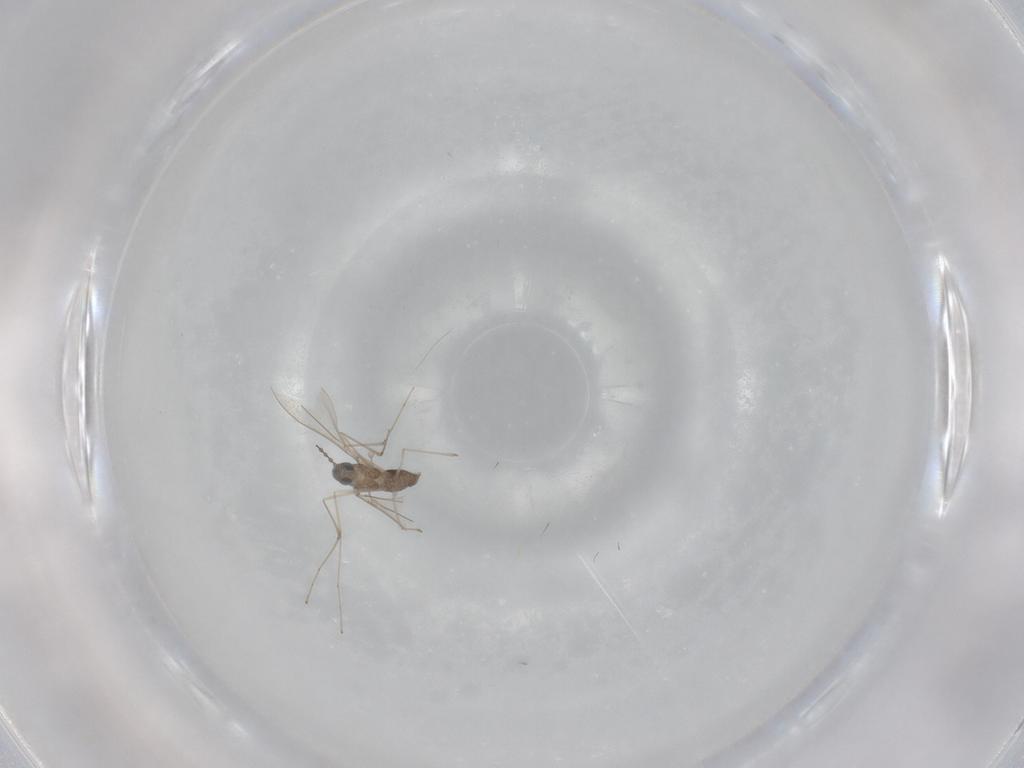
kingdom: Animalia
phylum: Arthropoda
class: Insecta
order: Diptera
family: Cecidomyiidae
